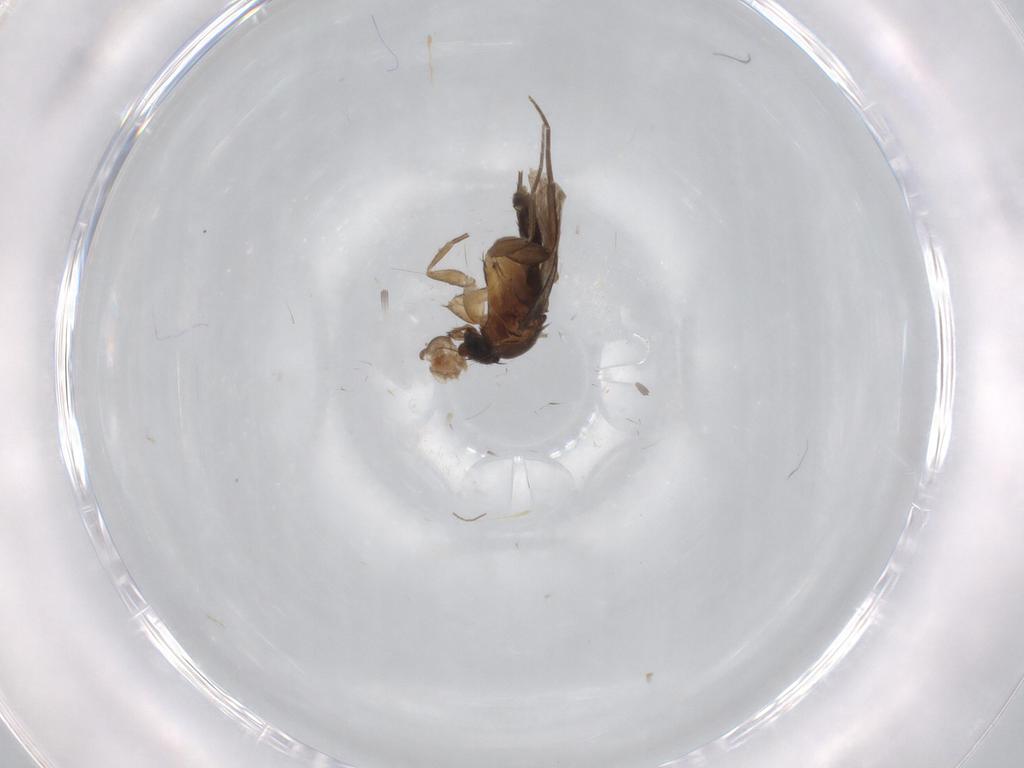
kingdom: Animalia
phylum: Arthropoda
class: Insecta
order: Diptera
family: Phoridae
